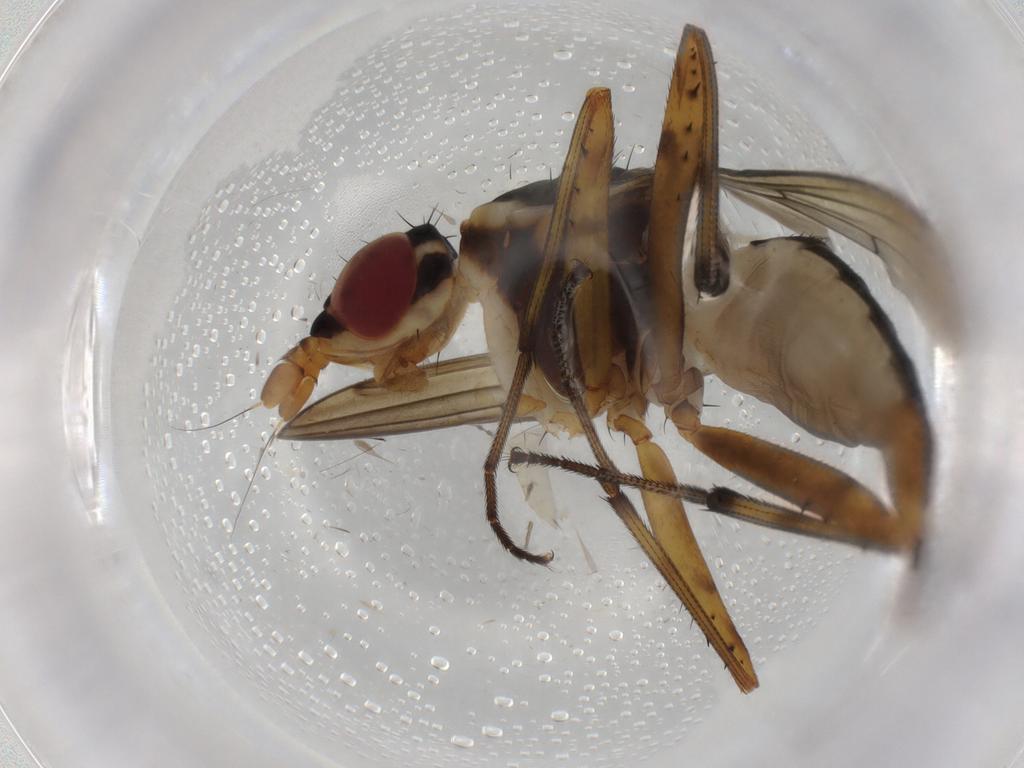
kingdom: Animalia
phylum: Arthropoda
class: Insecta
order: Diptera
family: Neriidae
